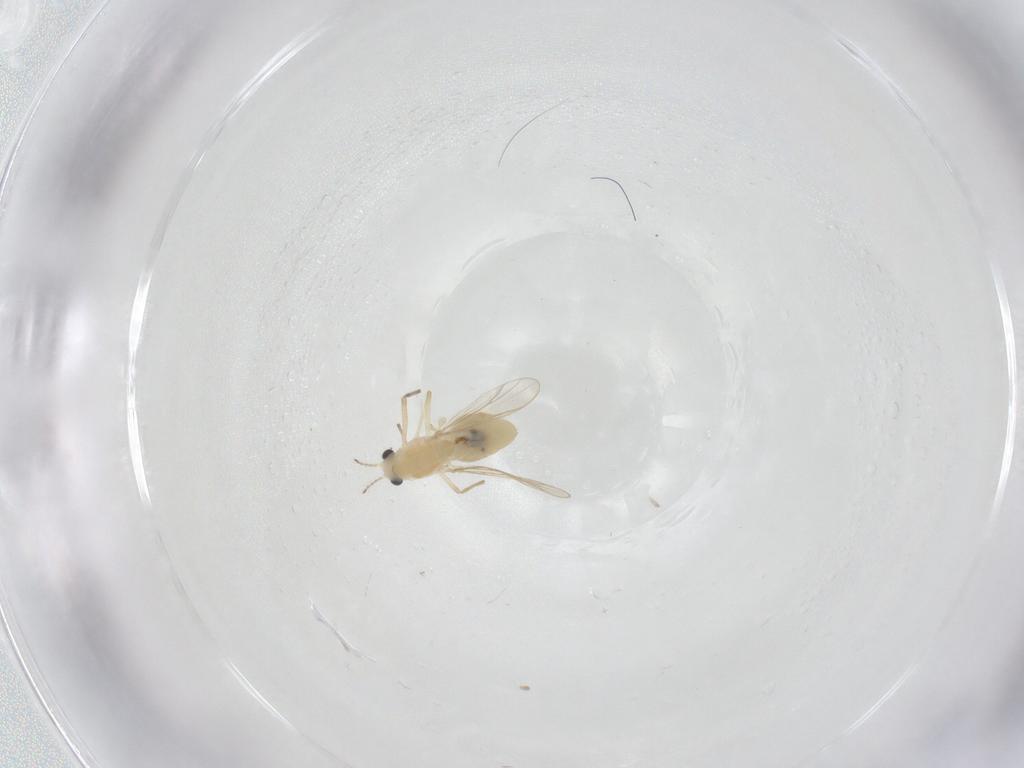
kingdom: Animalia
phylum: Arthropoda
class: Insecta
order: Diptera
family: Chironomidae
